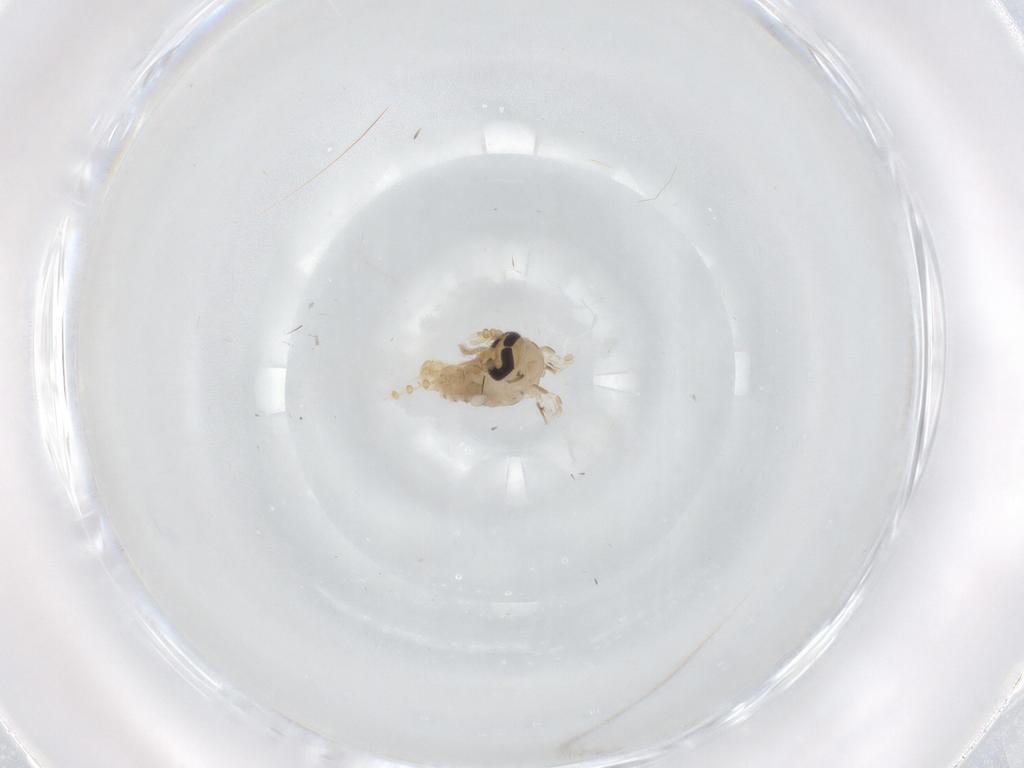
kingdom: Animalia
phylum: Arthropoda
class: Insecta
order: Diptera
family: Psychodidae
